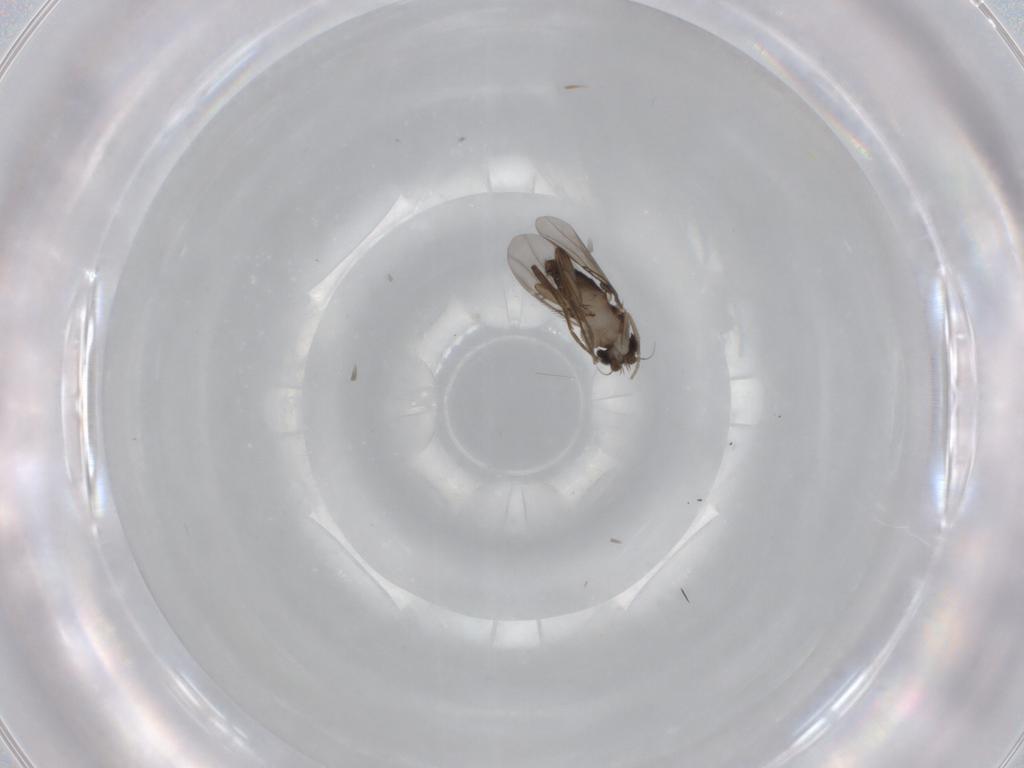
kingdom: Animalia
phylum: Arthropoda
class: Insecta
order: Diptera
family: Phoridae
